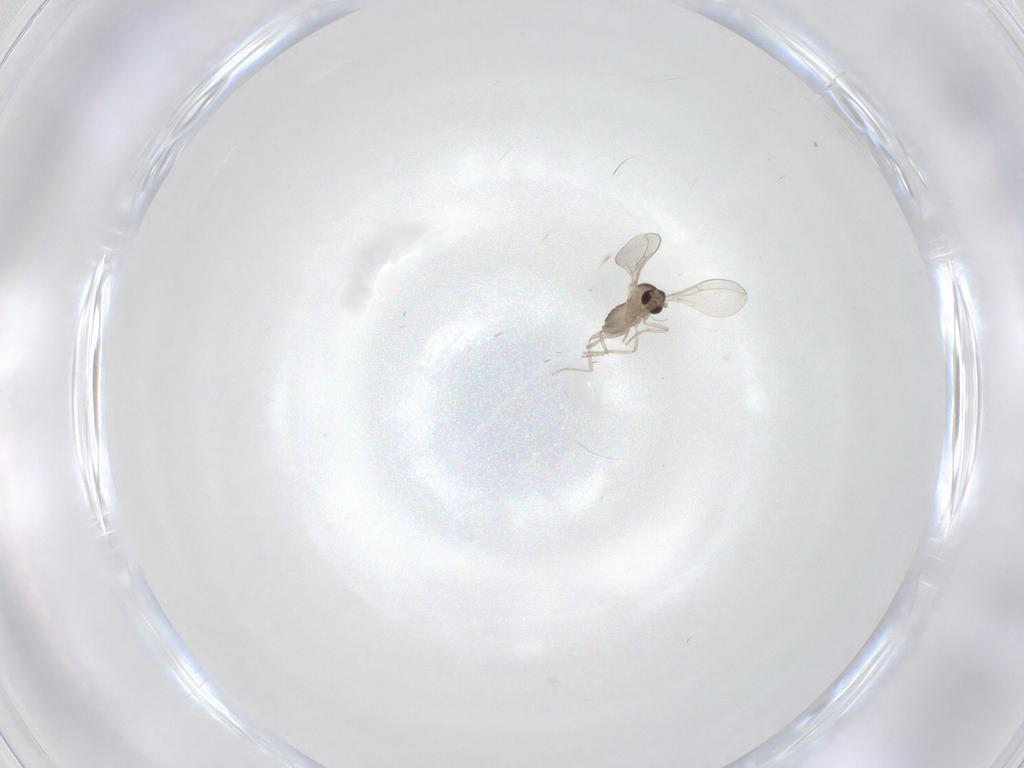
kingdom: Animalia
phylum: Arthropoda
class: Insecta
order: Diptera
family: Cecidomyiidae
